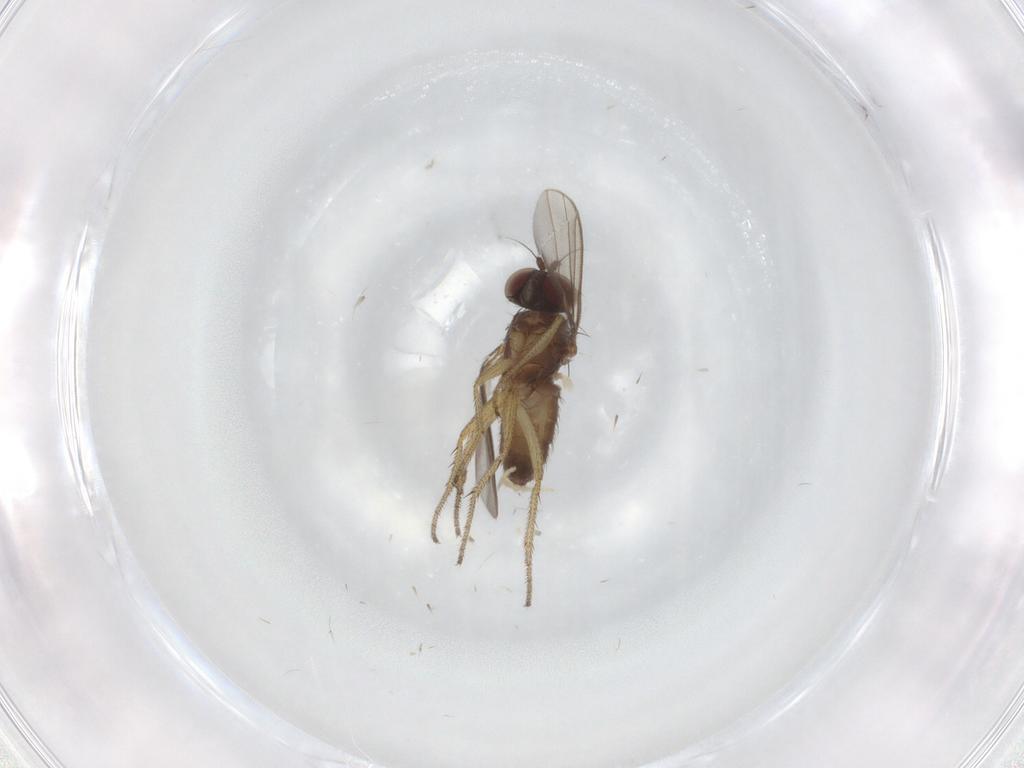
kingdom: Animalia
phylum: Arthropoda
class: Insecta
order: Diptera
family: Dolichopodidae
